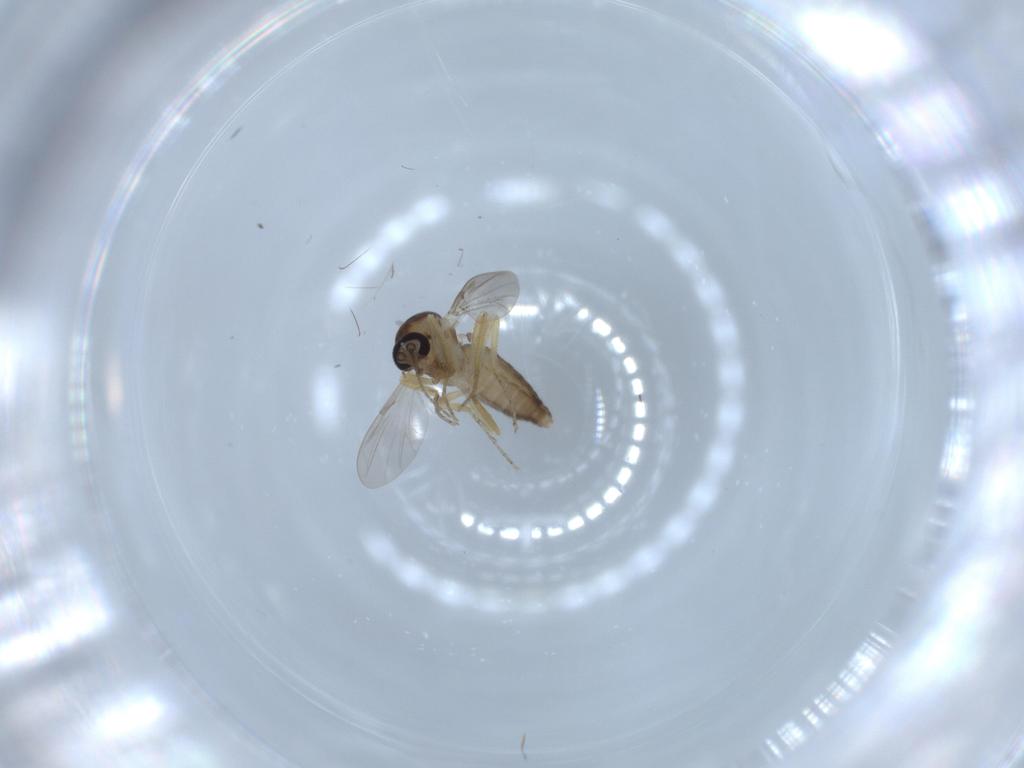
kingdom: Animalia
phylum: Arthropoda
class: Insecta
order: Diptera
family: Ceratopogonidae
